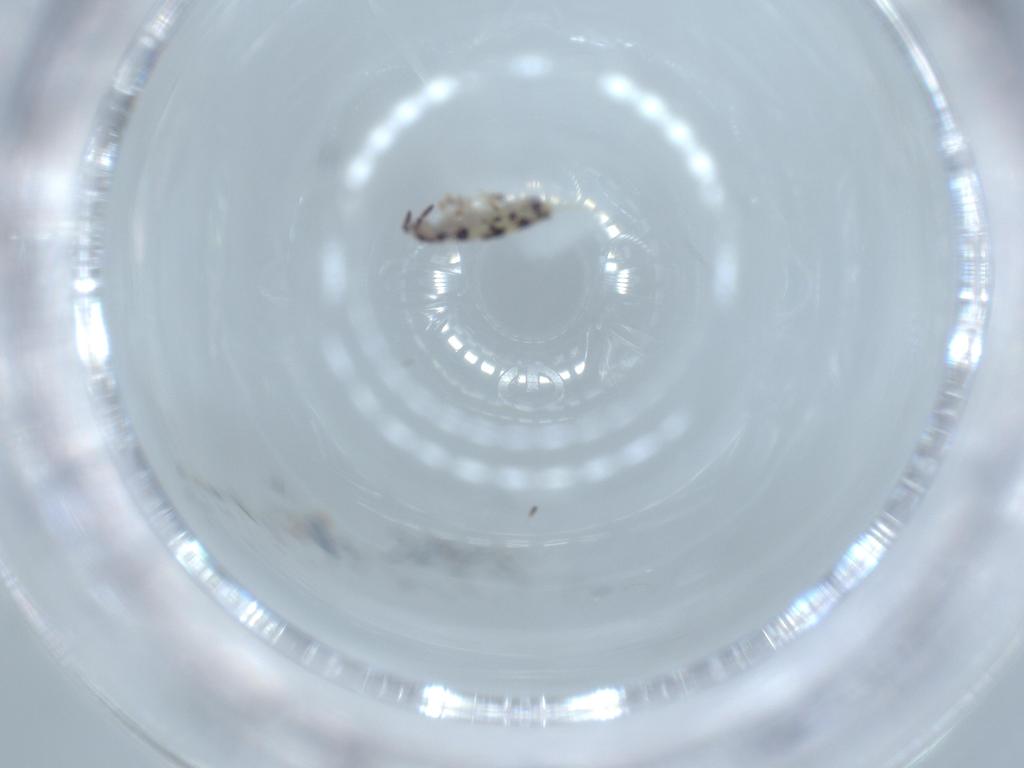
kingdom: Animalia
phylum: Arthropoda
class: Collembola
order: Entomobryomorpha
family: Entomobryidae
